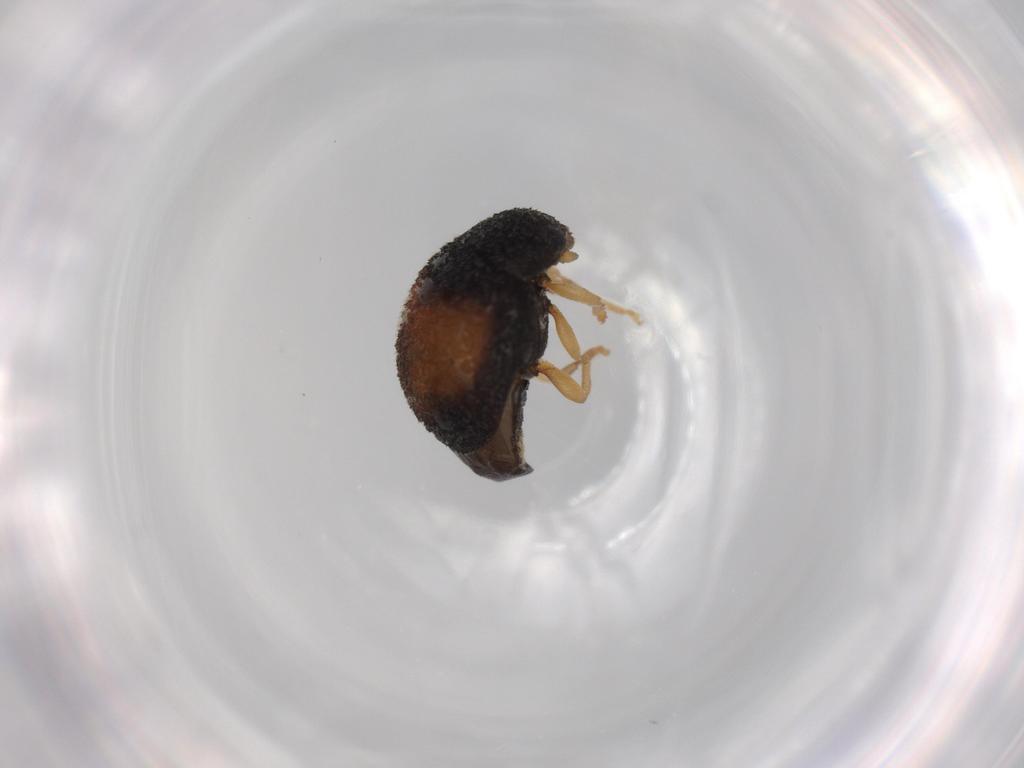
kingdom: Animalia
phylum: Arthropoda
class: Insecta
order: Coleoptera
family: Coccinellidae
